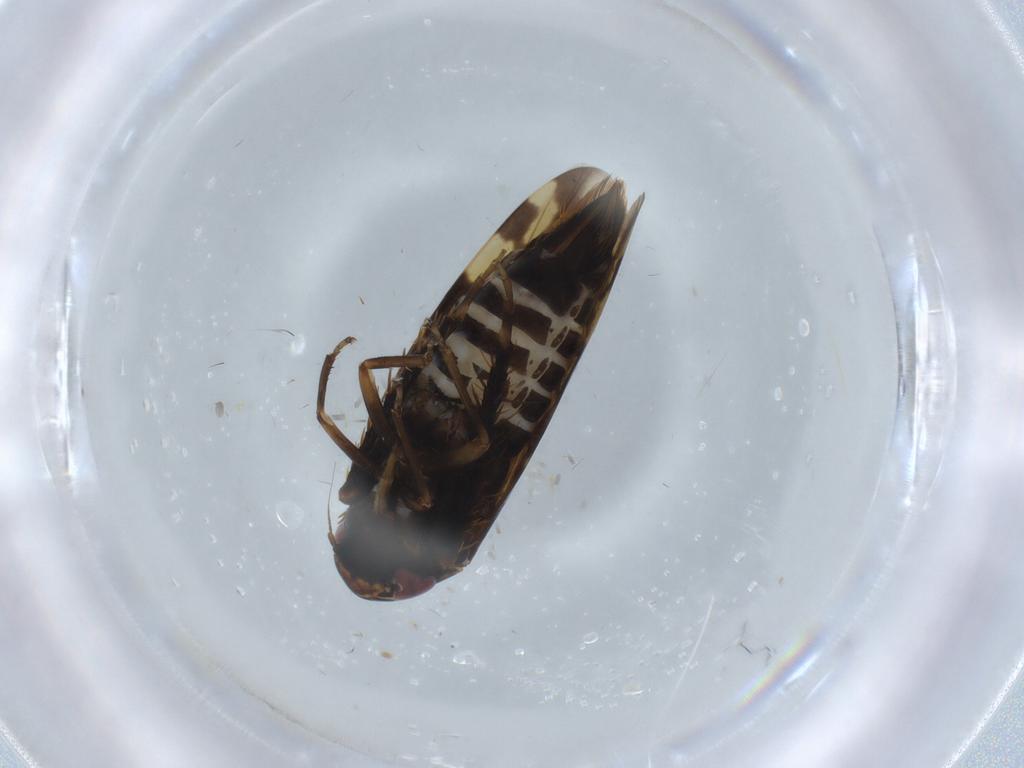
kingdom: Animalia
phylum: Arthropoda
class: Insecta
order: Hemiptera
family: Cicadellidae
